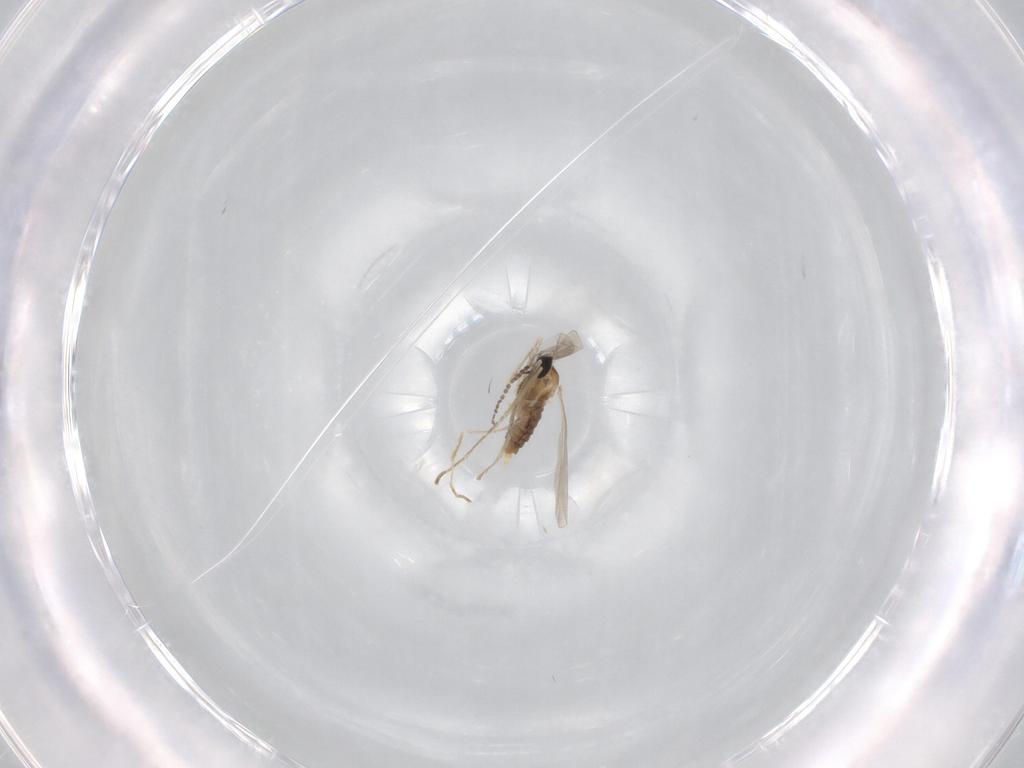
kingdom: Animalia
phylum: Arthropoda
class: Insecta
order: Diptera
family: Cecidomyiidae
